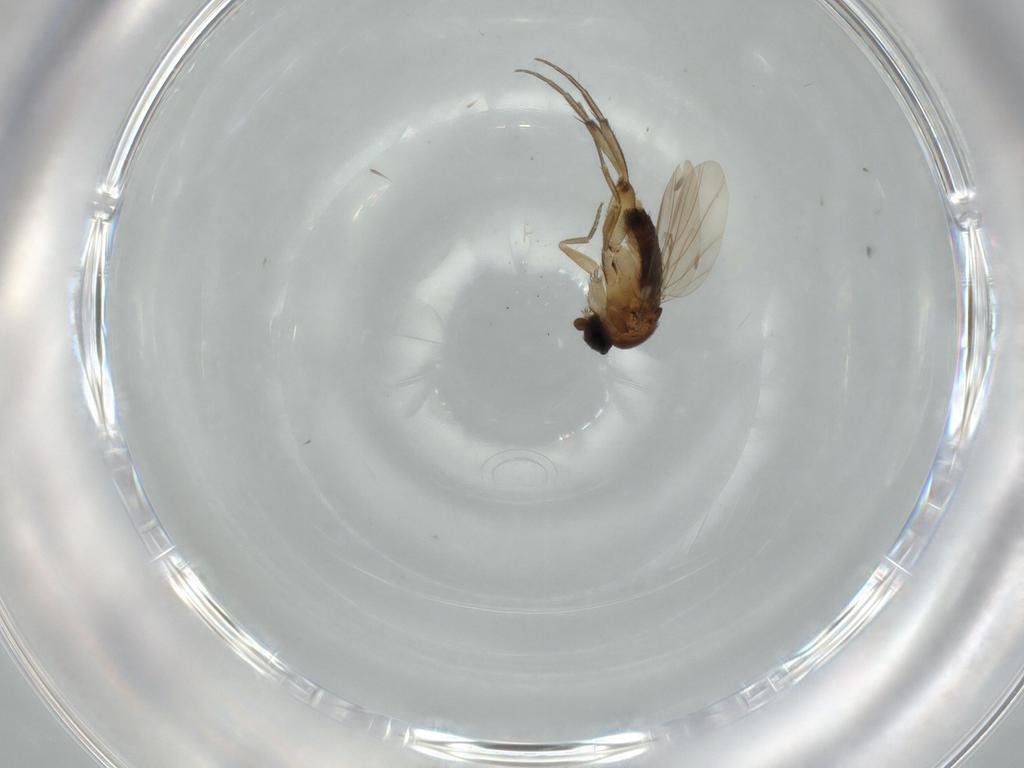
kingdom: Animalia
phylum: Arthropoda
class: Insecta
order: Diptera
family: Phoridae
